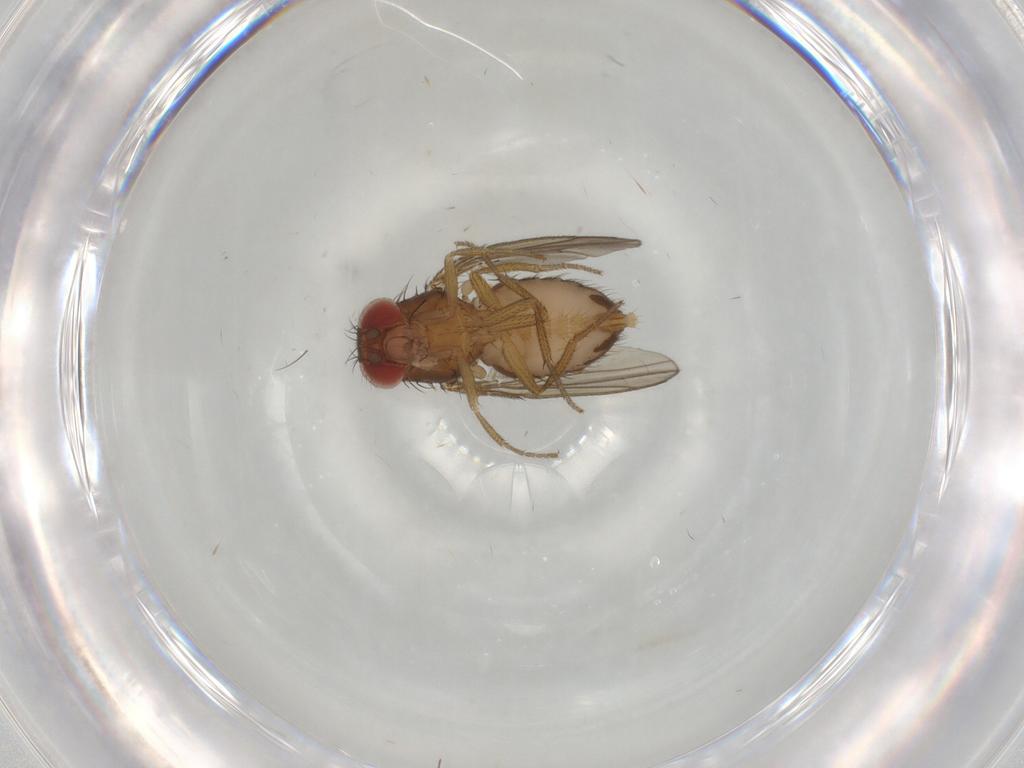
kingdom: Animalia
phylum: Arthropoda
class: Insecta
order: Diptera
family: Drosophilidae
